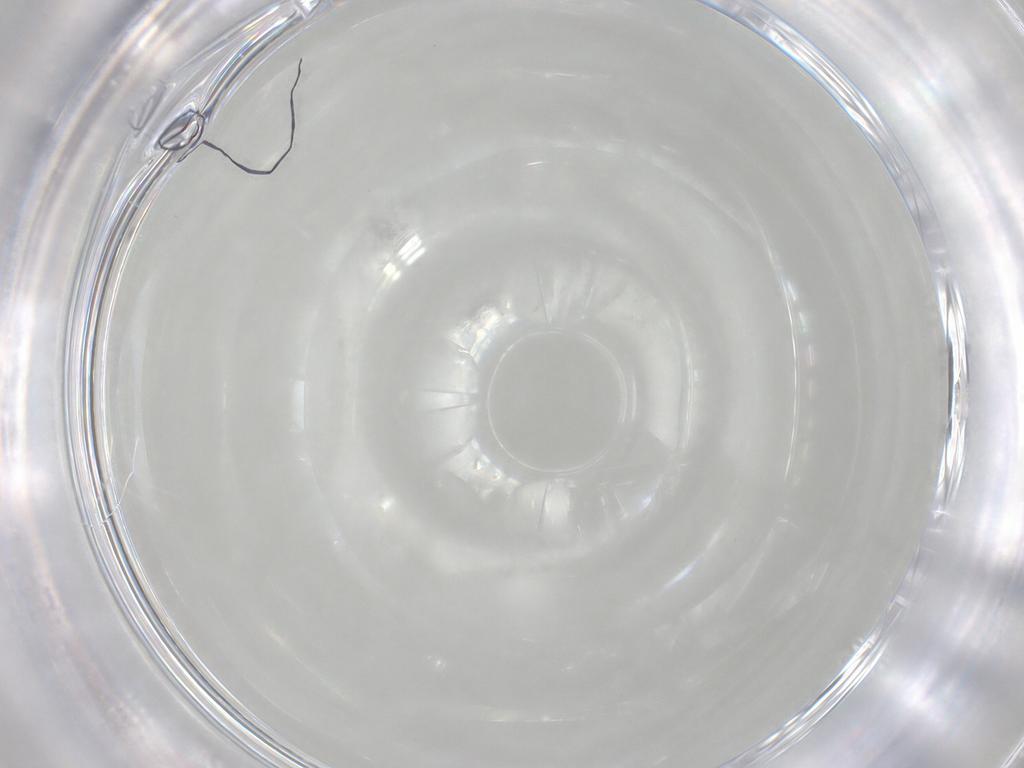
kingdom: Animalia
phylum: Arthropoda
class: Insecta
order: Diptera
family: Cecidomyiidae
